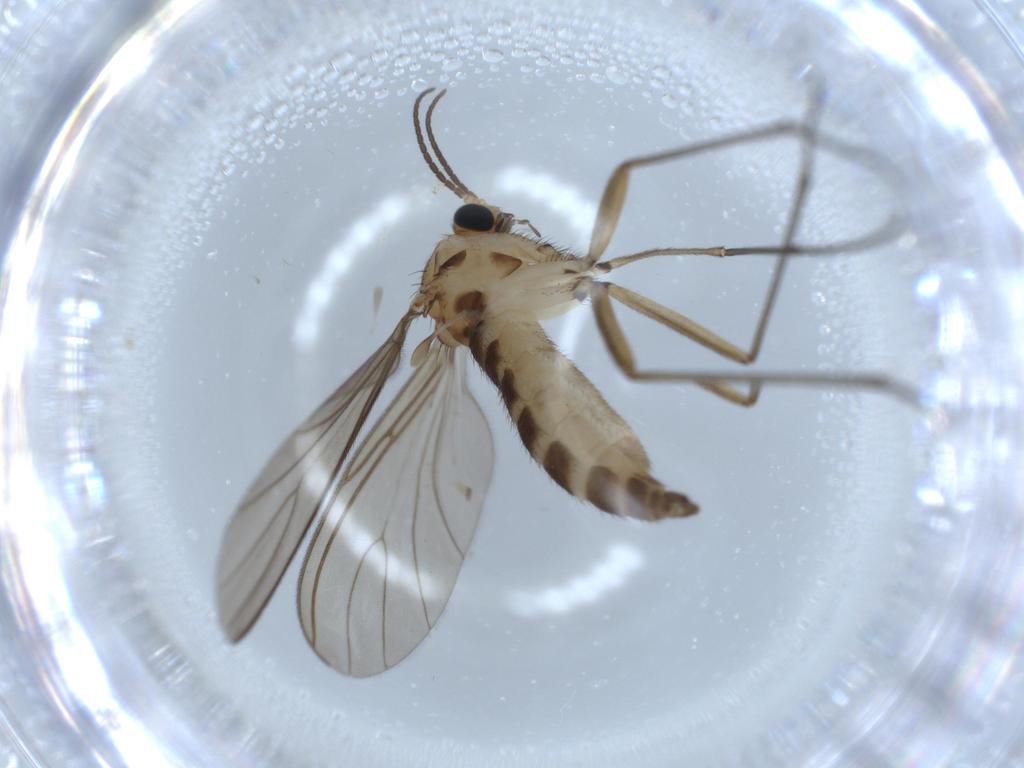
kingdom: Animalia
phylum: Arthropoda
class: Insecta
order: Diptera
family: Sciaridae
